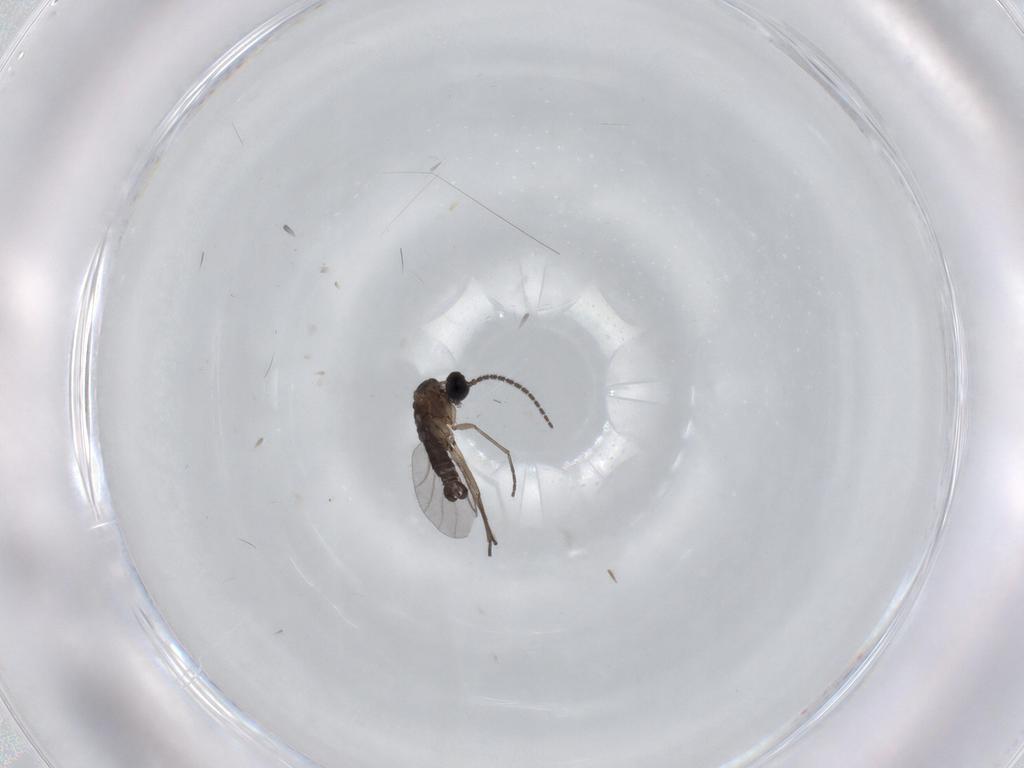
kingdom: Animalia
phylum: Arthropoda
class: Insecta
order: Diptera
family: Sciaridae
